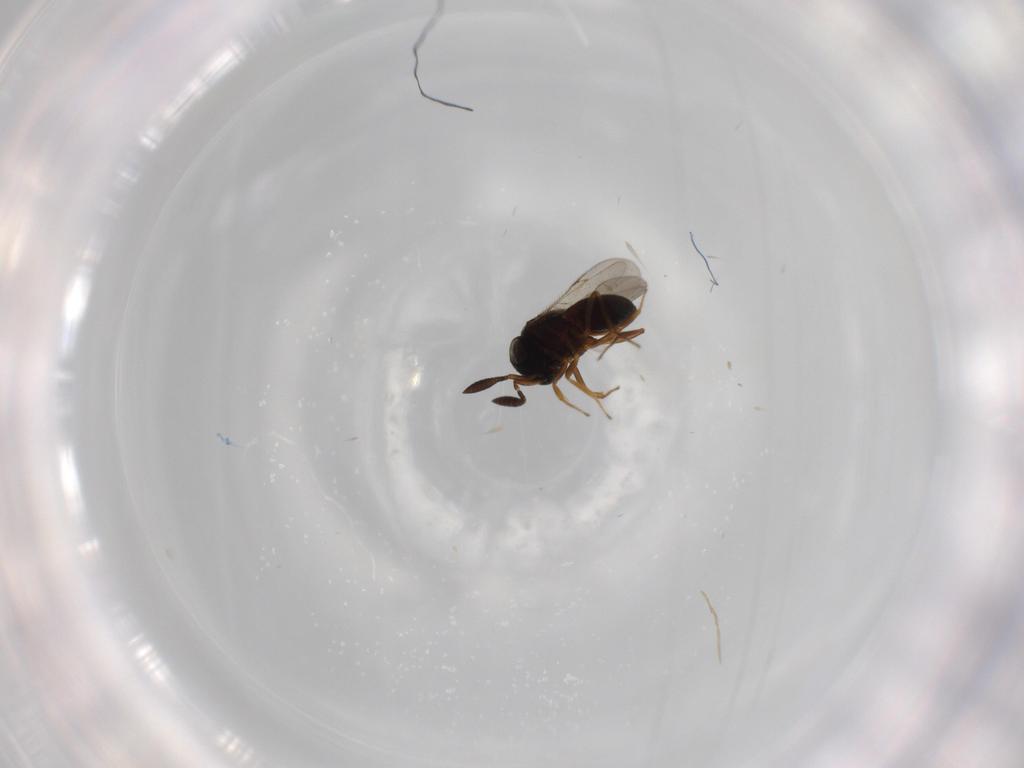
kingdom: Animalia
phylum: Arthropoda
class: Insecta
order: Coleoptera
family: Curculionidae
